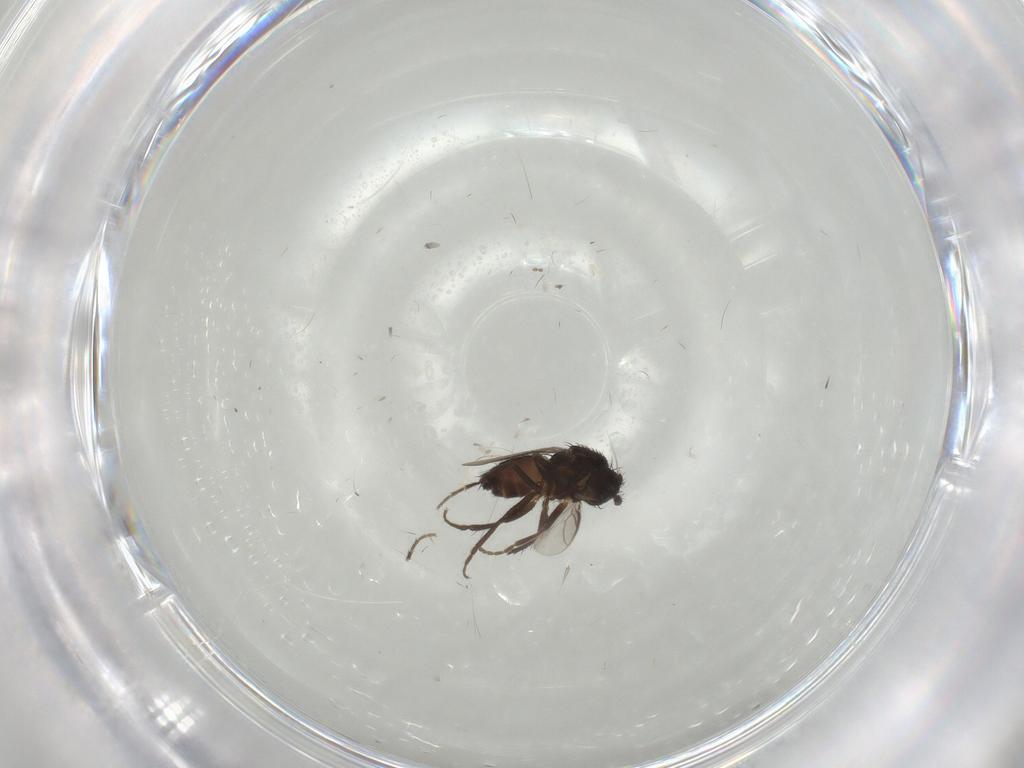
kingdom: Animalia
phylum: Arthropoda
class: Insecta
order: Diptera
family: Sphaeroceridae
